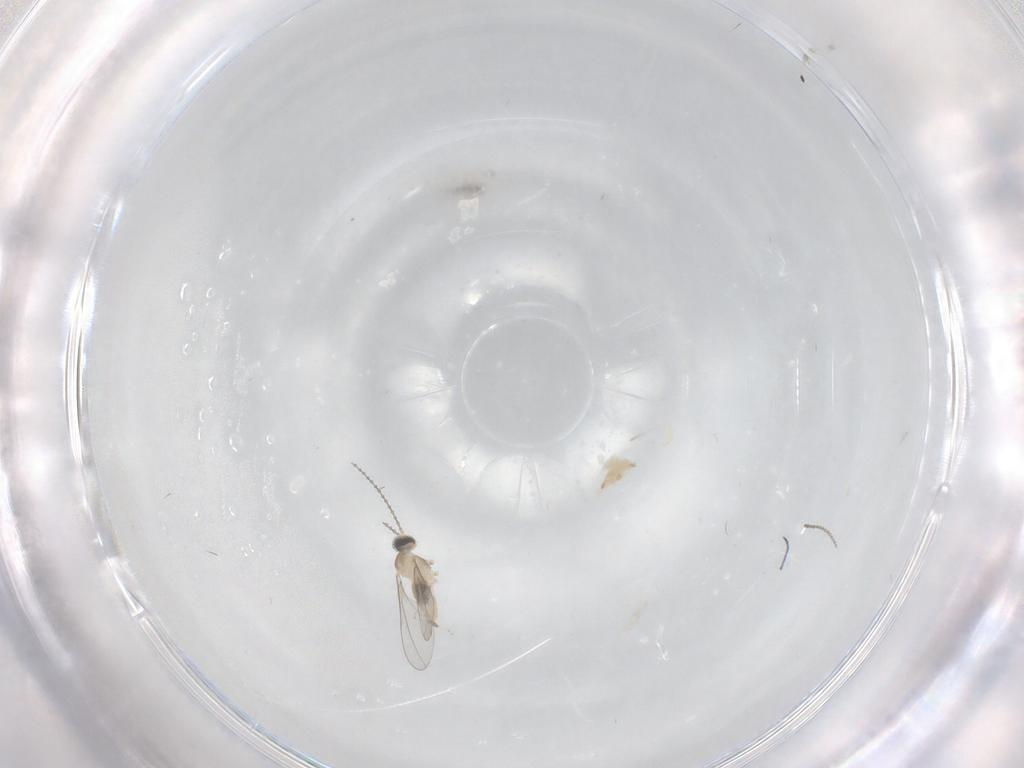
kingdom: Animalia
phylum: Arthropoda
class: Insecta
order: Diptera
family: Cecidomyiidae
